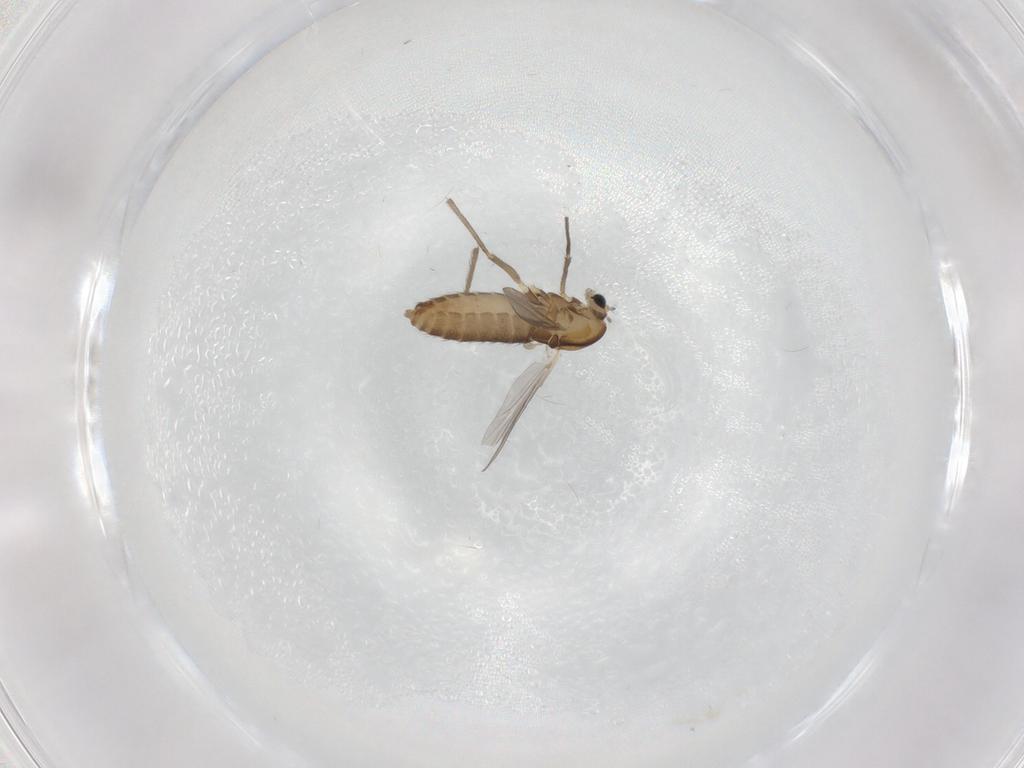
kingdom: Animalia
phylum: Arthropoda
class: Insecta
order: Diptera
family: Chironomidae
